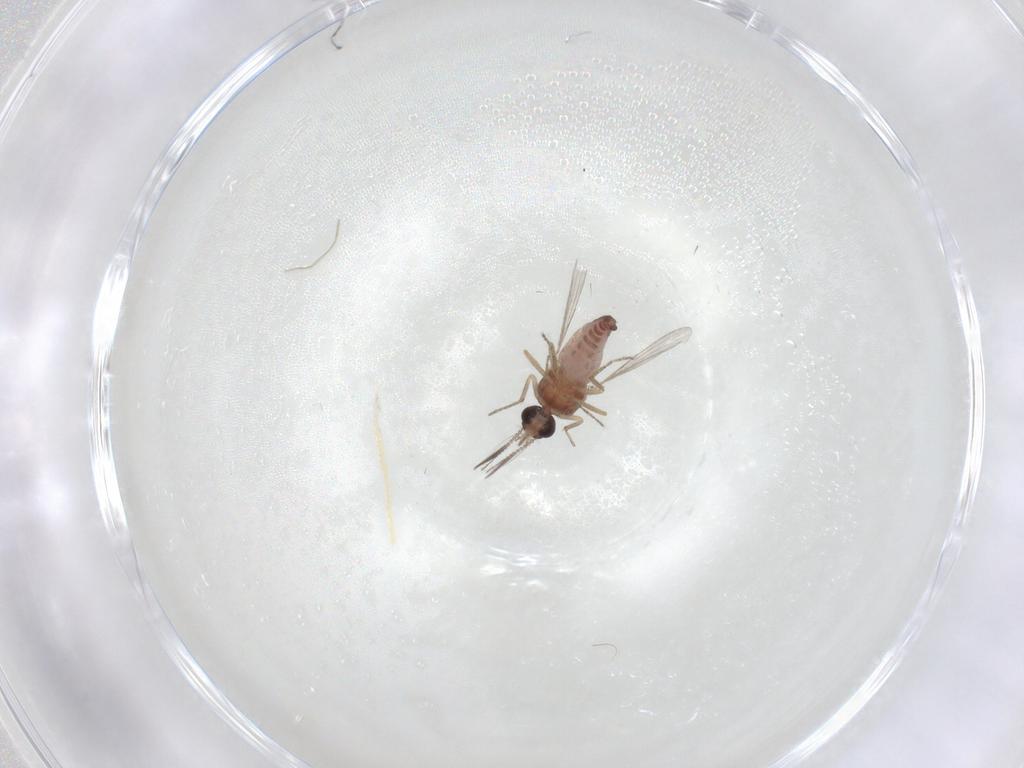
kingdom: Animalia
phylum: Arthropoda
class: Insecta
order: Diptera
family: Ceratopogonidae
